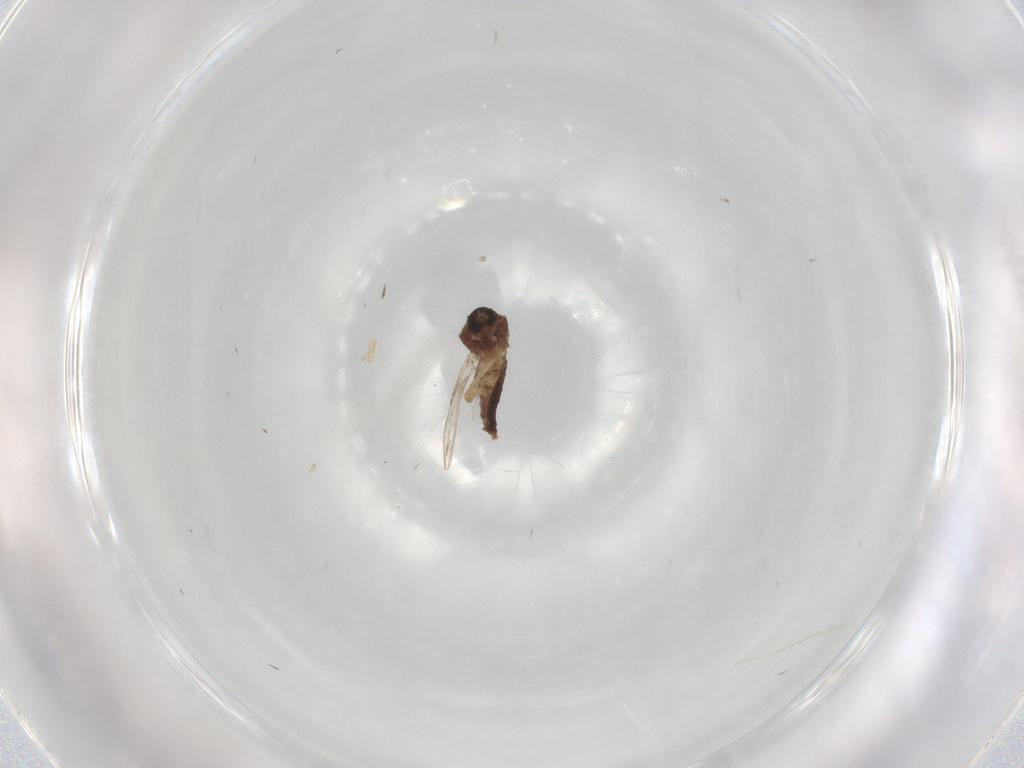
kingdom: Animalia
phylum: Arthropoda
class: Insecta
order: Diptera
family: Ceratopogonidae
